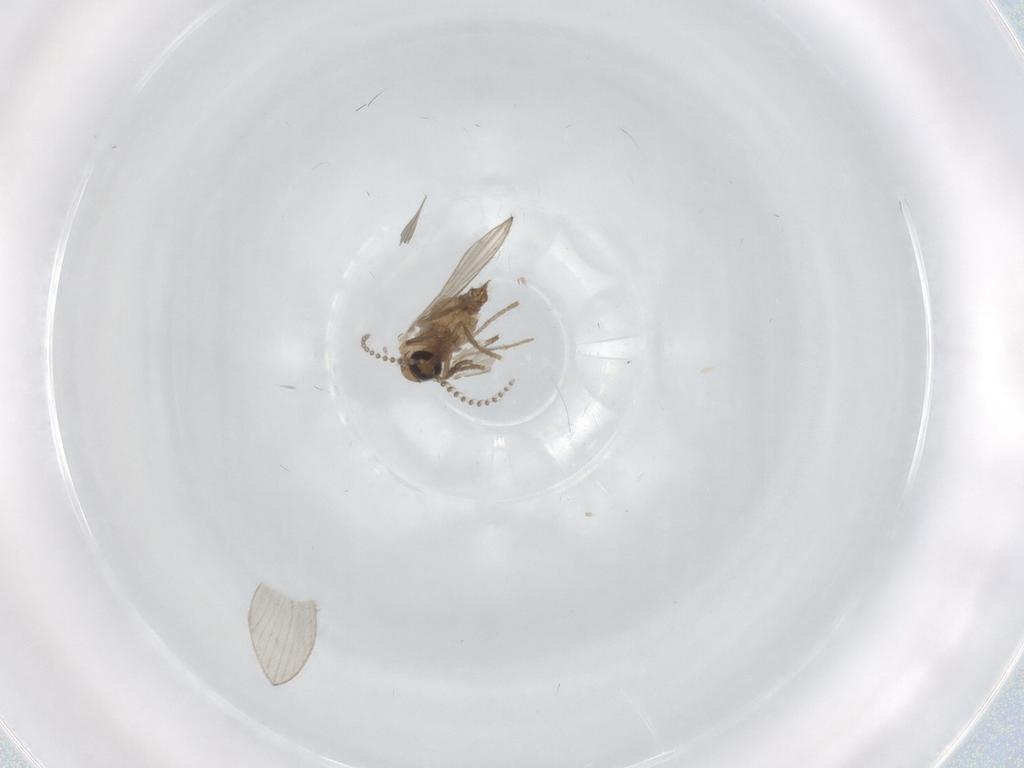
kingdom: Animalia
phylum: Arthropoda
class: Insecta
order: Diptera
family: Psychodidae
